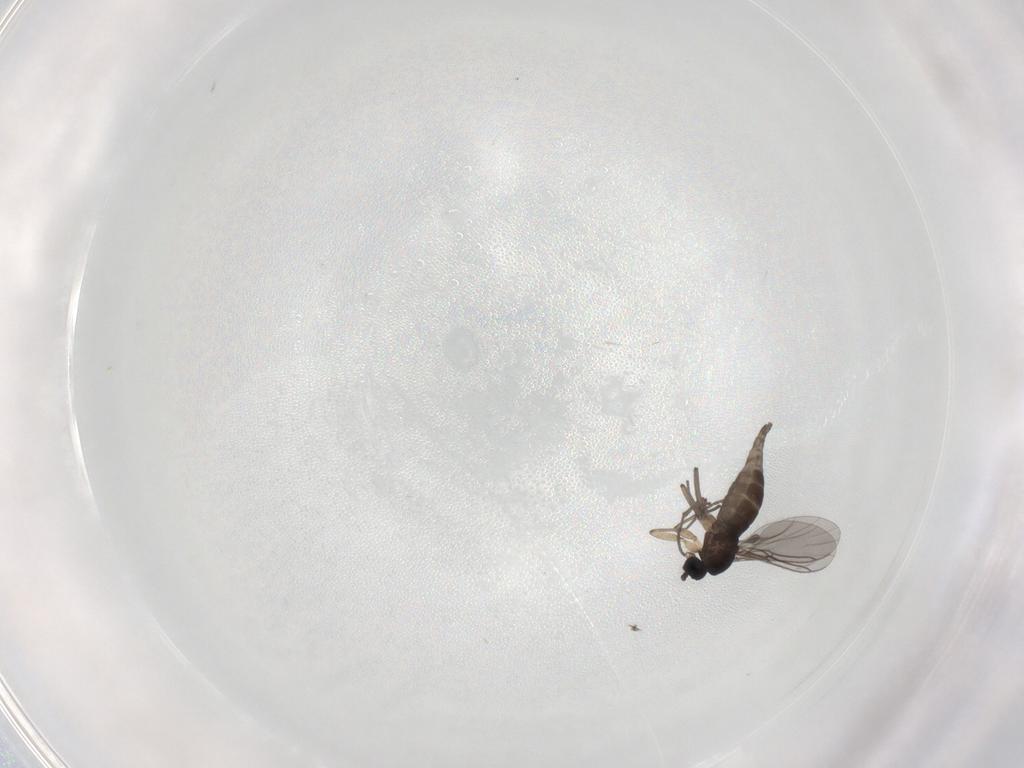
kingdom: Animalia
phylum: Arthropoda
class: Insecta
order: Diptera
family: Sciaridae
